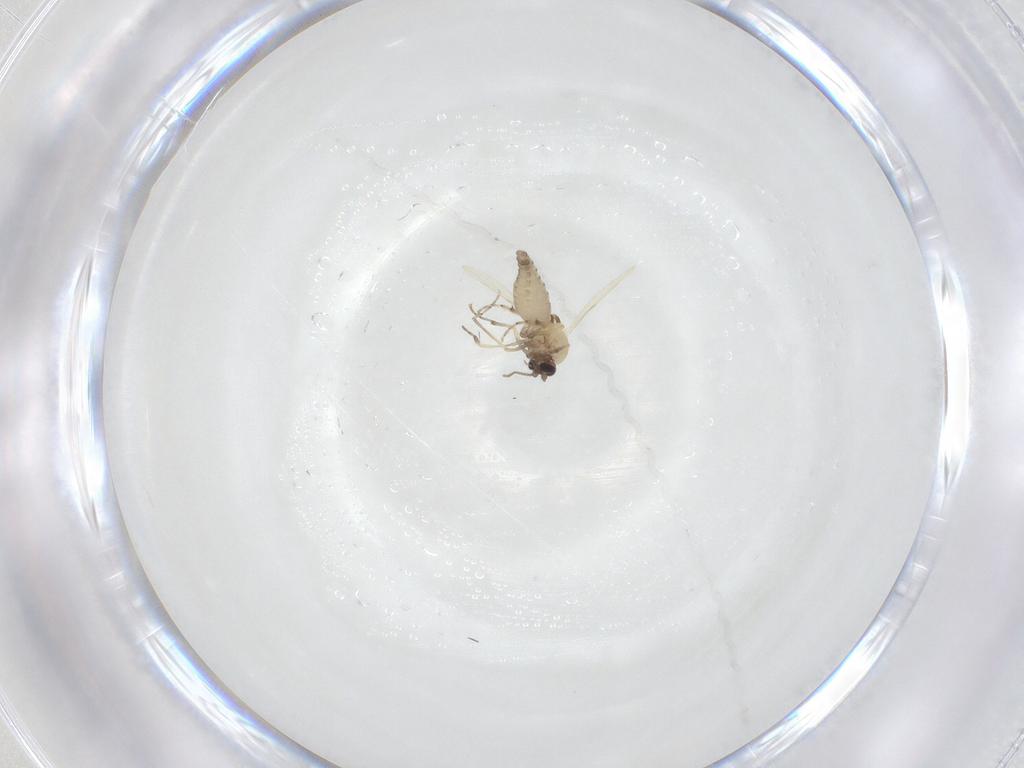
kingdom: Animalia
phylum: Arthropoda
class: Insecta
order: Diptera
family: Ceratopogonidae
